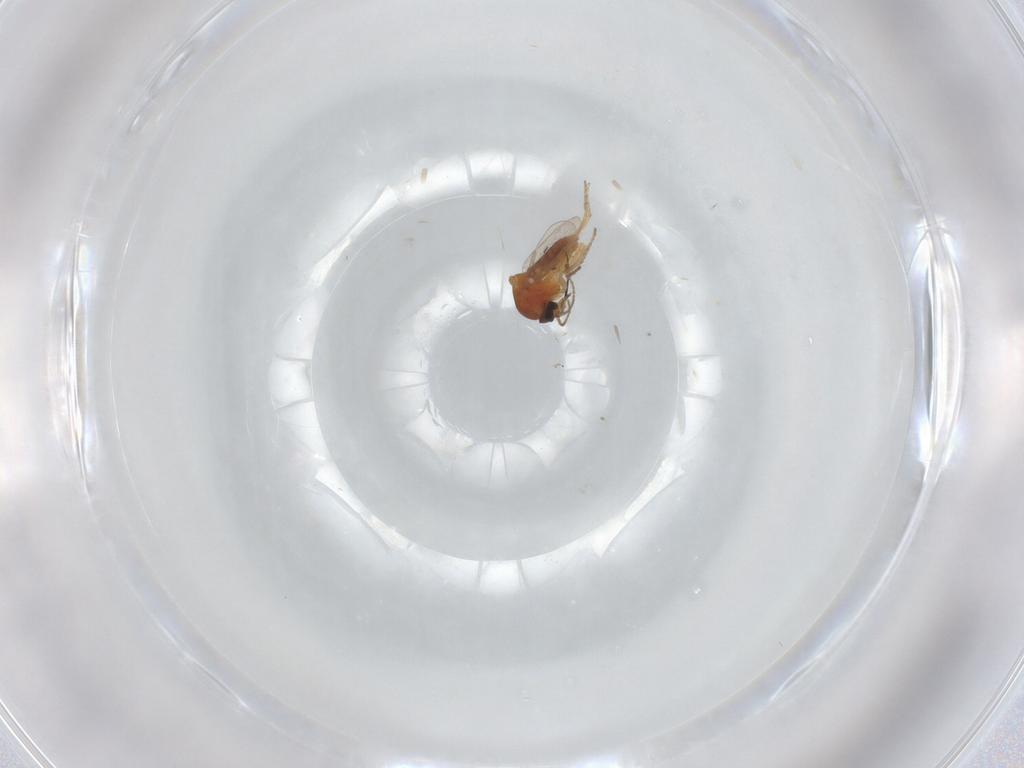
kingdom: Animalia
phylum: Arthropoda
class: Insecta
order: Diptera
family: Ceratopogonidae
